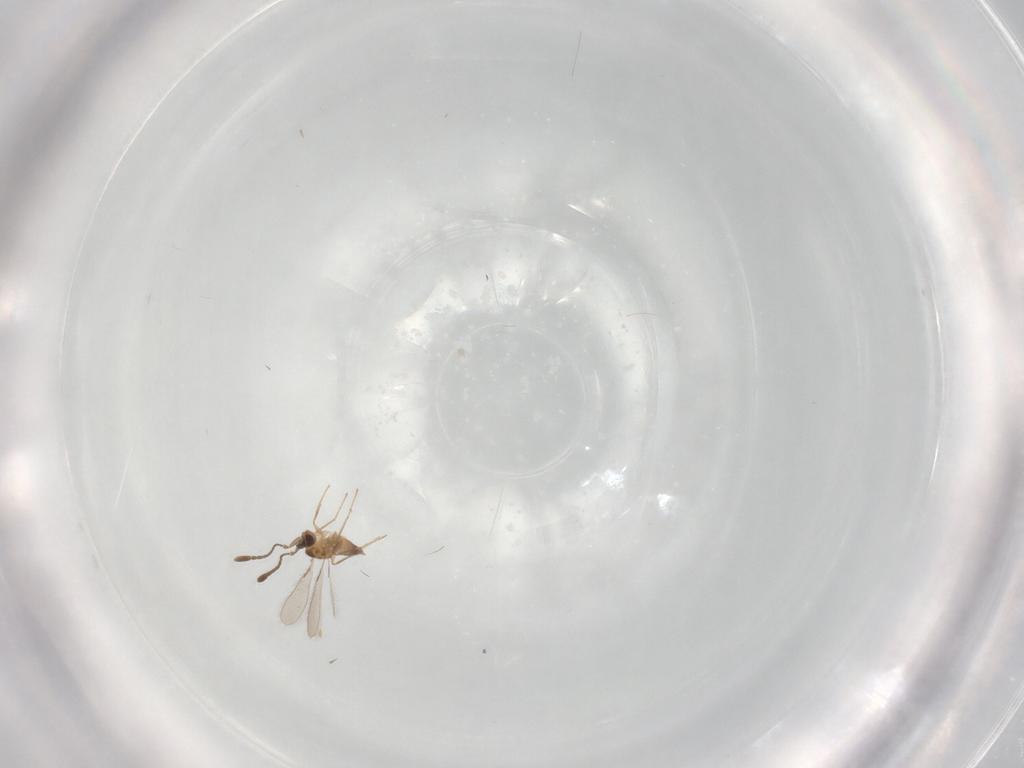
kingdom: Animalia
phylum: Arthropoda
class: Insecta
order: Hymenoptera
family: Mymaridae
